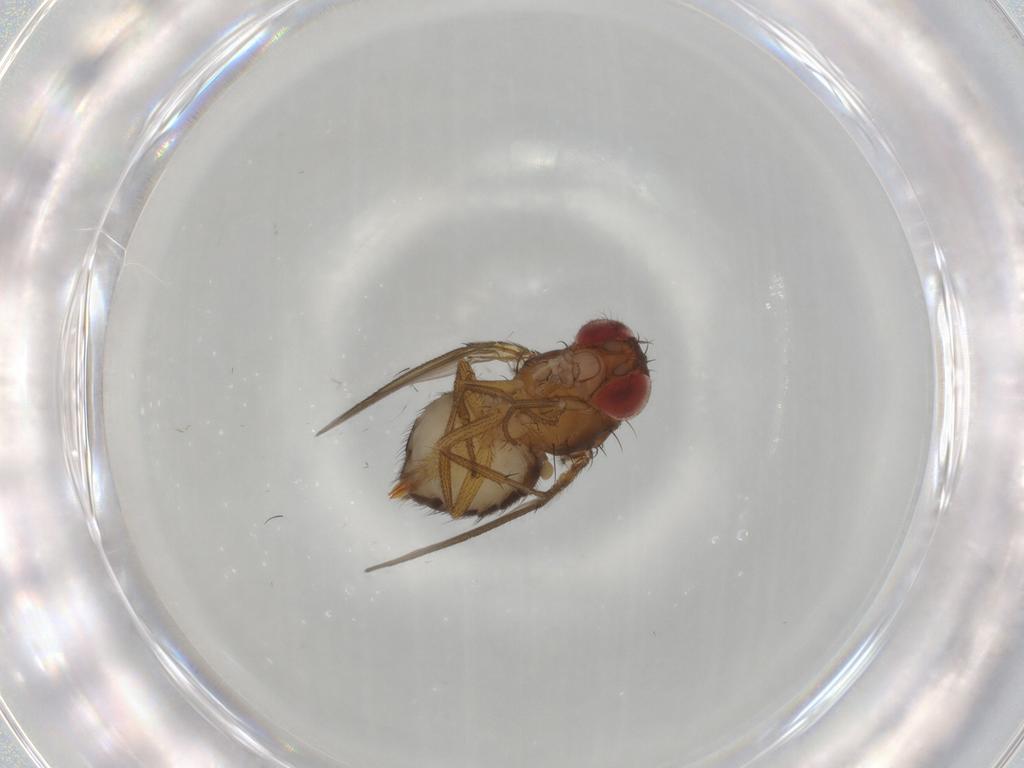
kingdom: Animalia
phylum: Arthropoda
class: Insecta
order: Diptera
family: Drosophilidae
